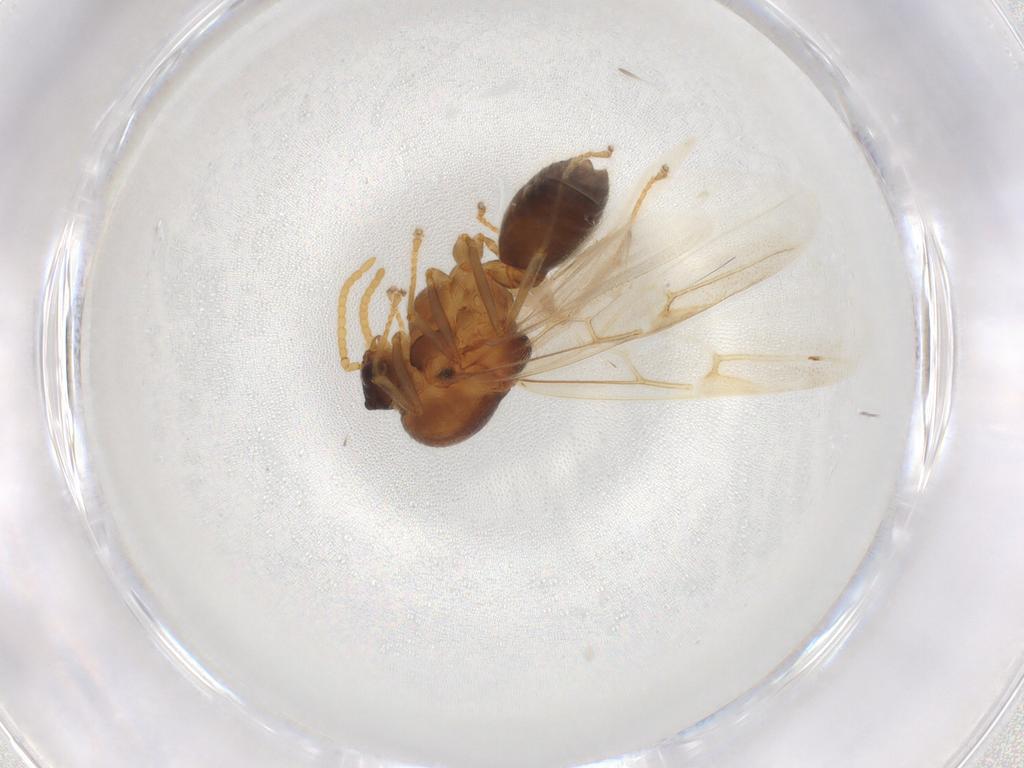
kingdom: Animalia
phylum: Arthropoda
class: Insecta
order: Hymenoptera
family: Formicidae
